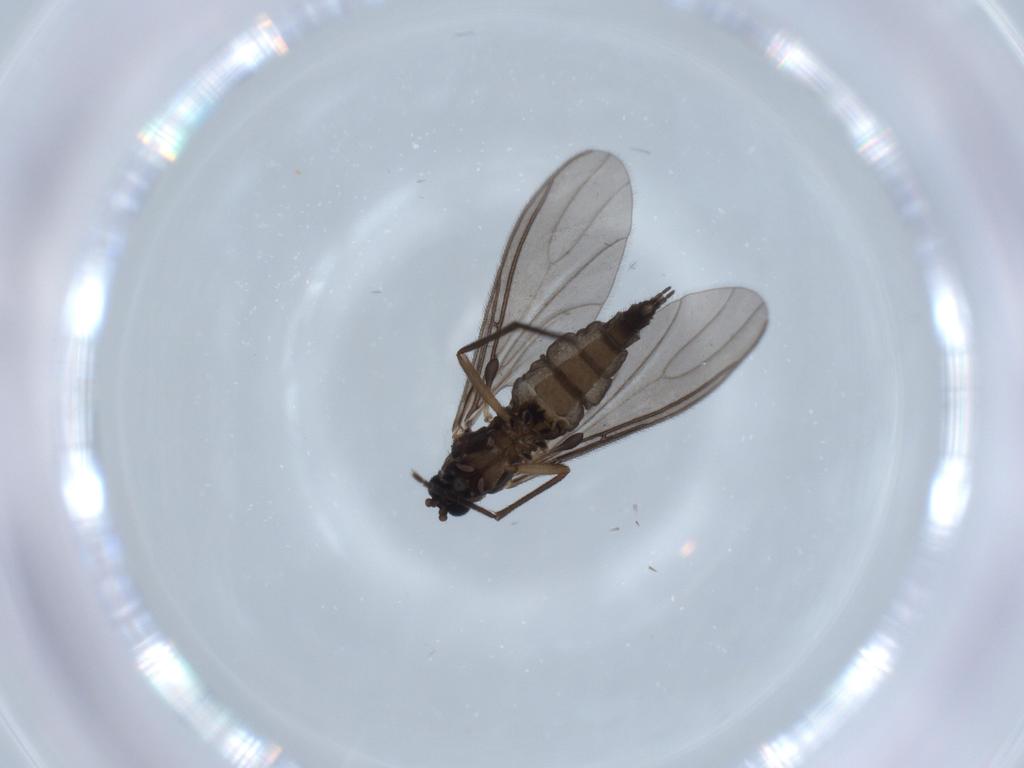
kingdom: Animalia
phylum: Arthropoda
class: Insecta
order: Diptera
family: Sciaridae
